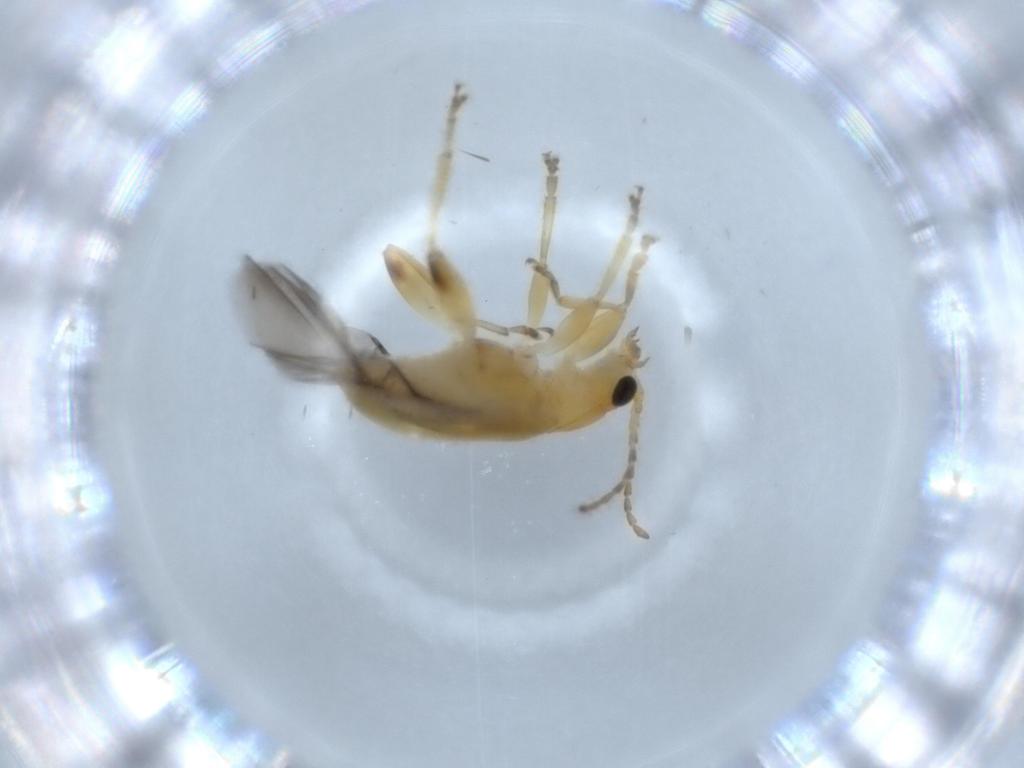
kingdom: Animalia
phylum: Arthropoda
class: Insecta
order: Coleoptera
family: Chrysomelidae
